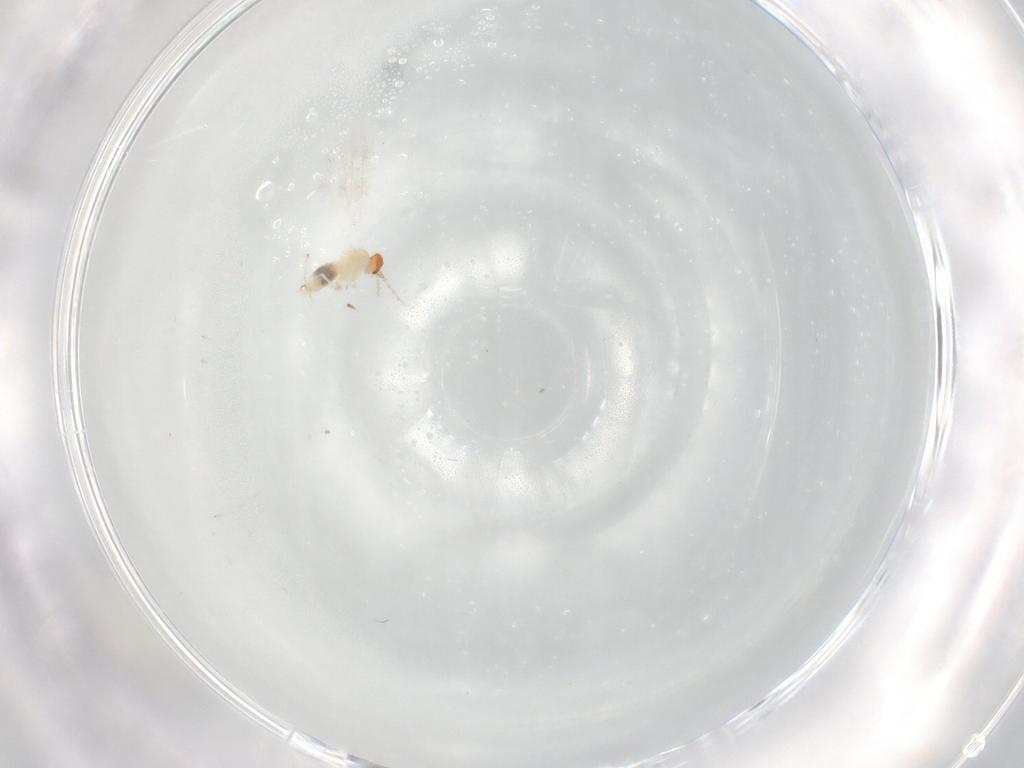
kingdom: Animalia
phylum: Arthropoda
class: Insecta
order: Diptera
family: Cecidomyiidae
